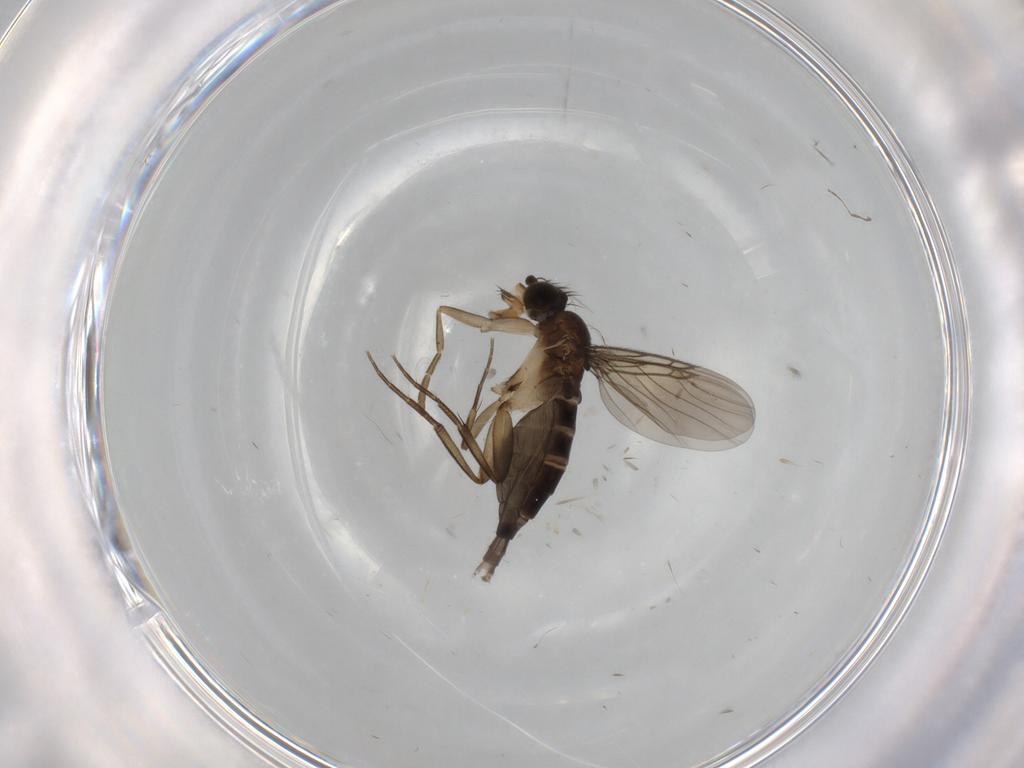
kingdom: Animalia
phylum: Arthropoda
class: Insecta
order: Diptera
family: Phoridae
